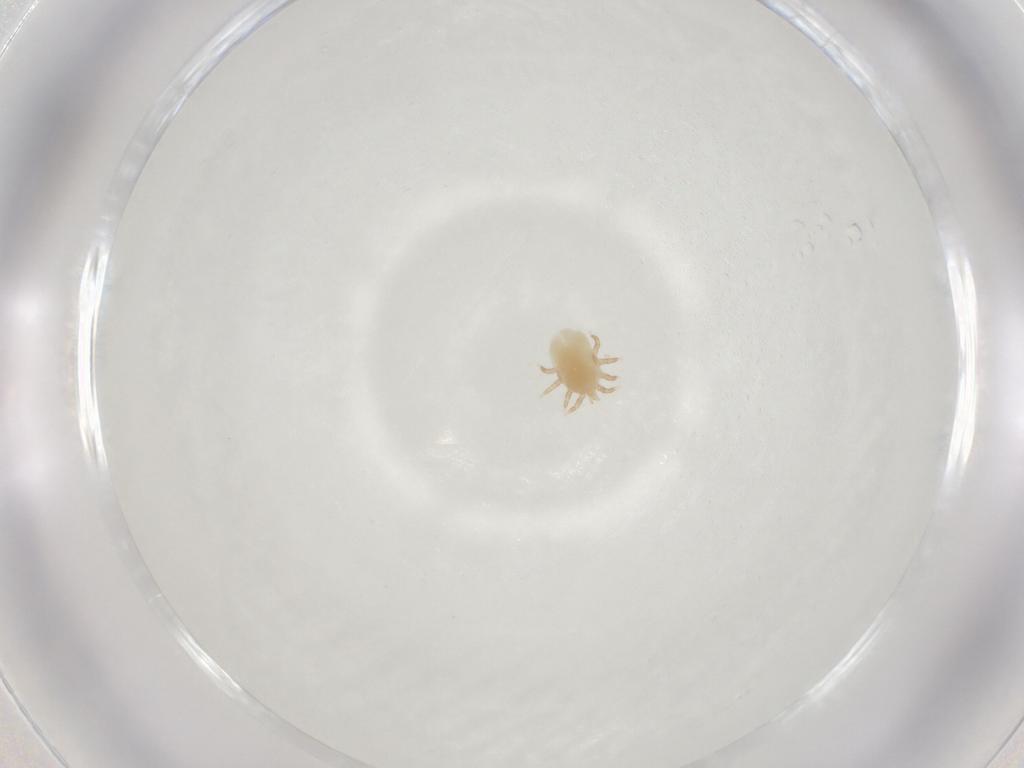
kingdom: Animalia
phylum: Arthropoda
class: Arachnida
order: Mesostigmata
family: Otopheidomenidae
